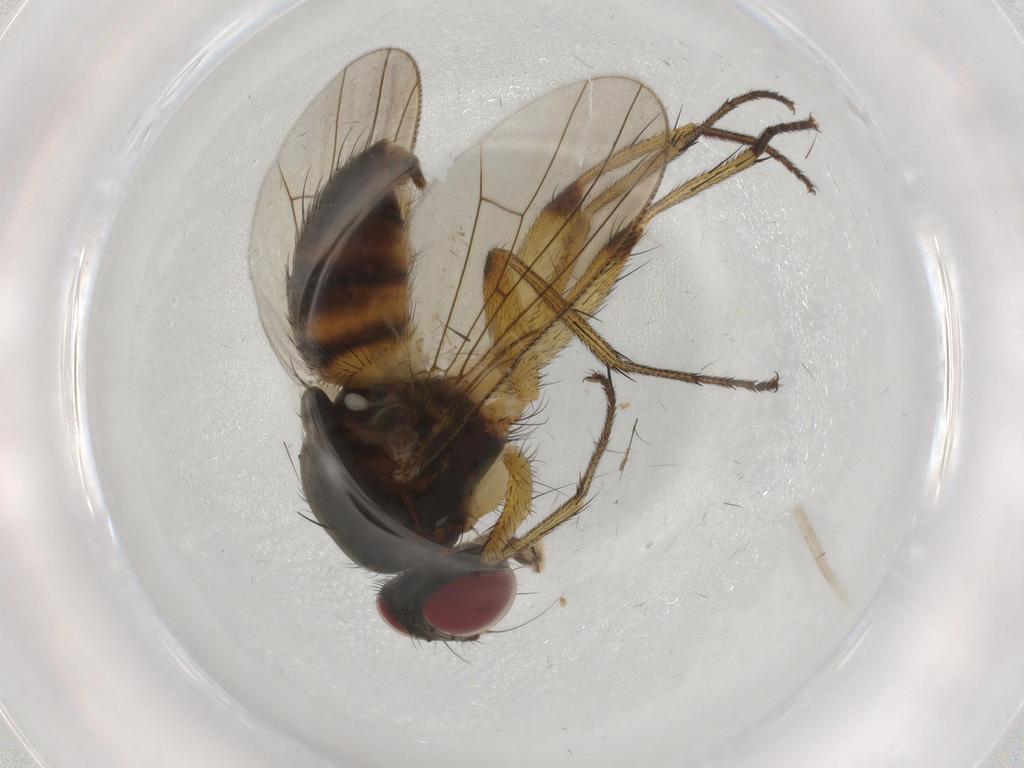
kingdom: Animalia
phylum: Arthropoda
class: Insecta
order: Diptera
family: Muscidae
